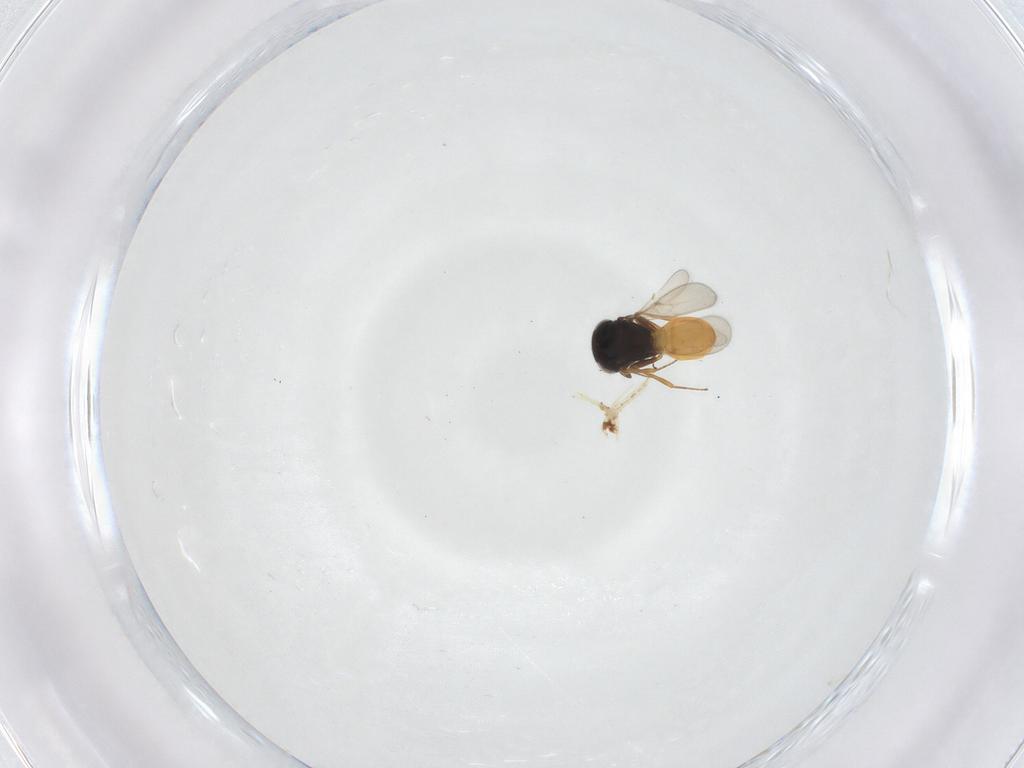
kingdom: Animalia
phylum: Arthropoda
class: Insecta
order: Hymenoptera
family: Scelionidae
